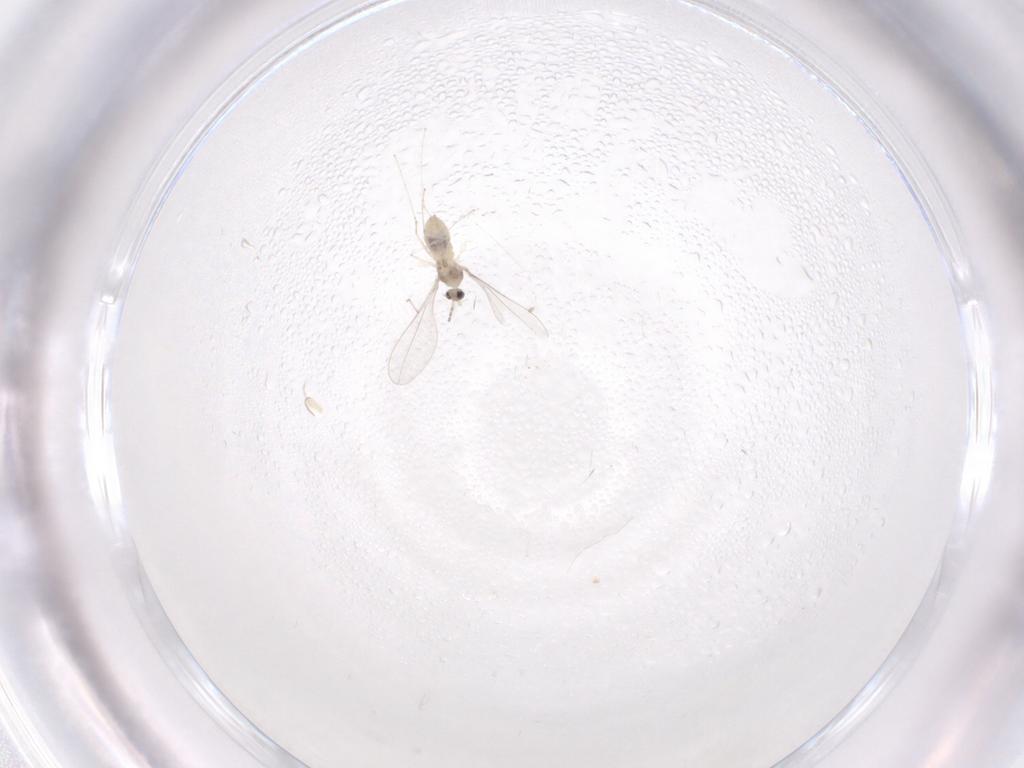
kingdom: Animalia
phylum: Arthropoda
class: Insecta
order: Diptera
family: Cecidomyiidae
